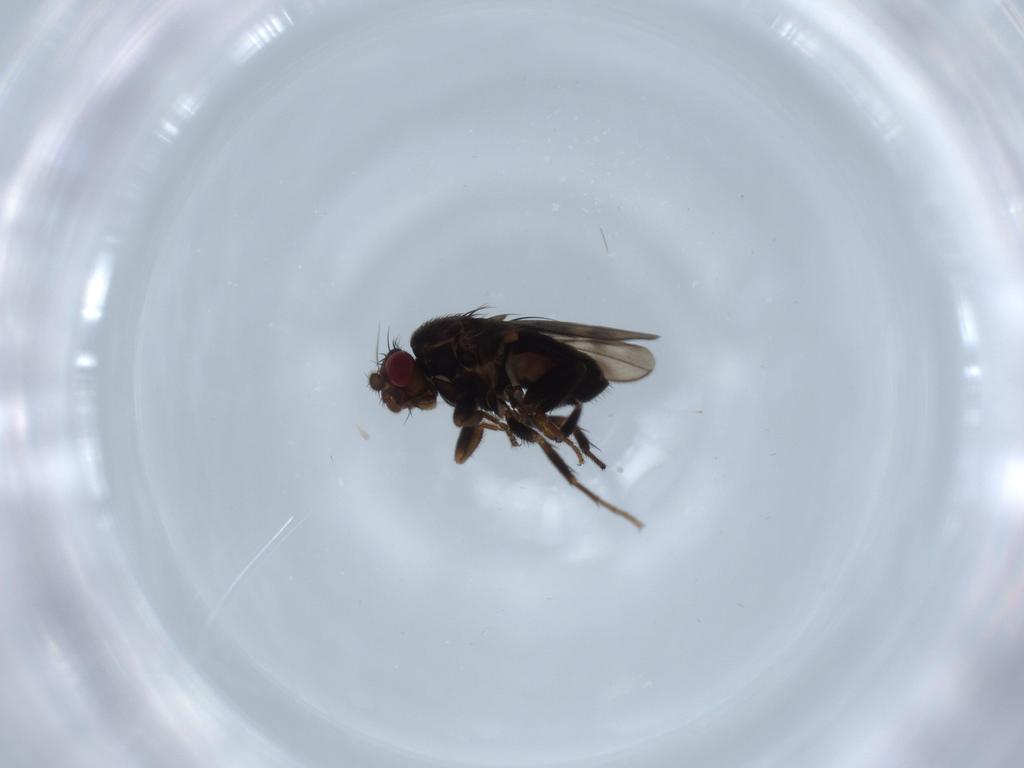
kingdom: Animalia
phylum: Arthropoda
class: Insecta
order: Diptera
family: Sphaeroceridae
